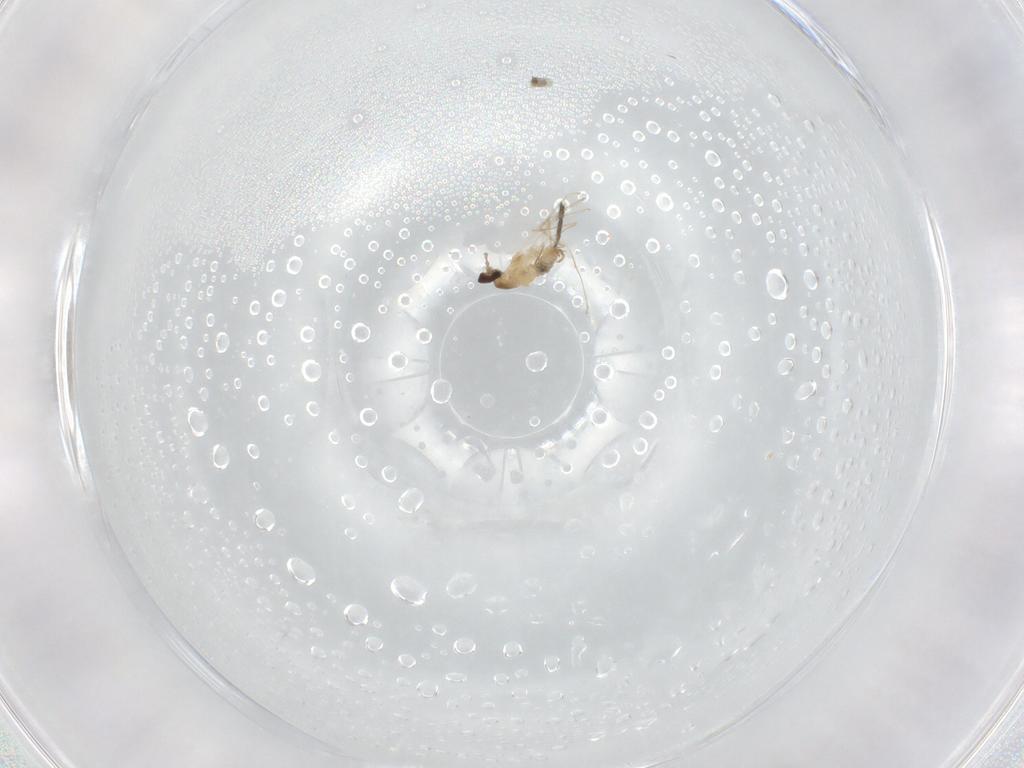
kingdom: Animalia
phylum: Arthropoda
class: Insecta
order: Diptera
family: Cecidomyiidae
